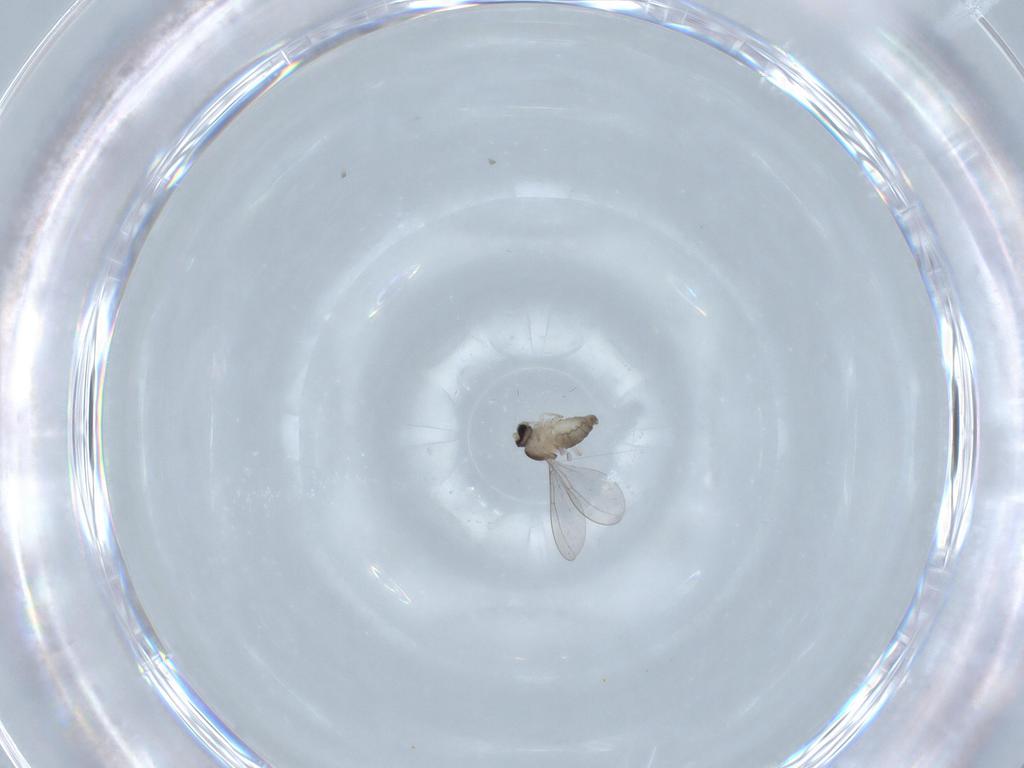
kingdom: Animalia
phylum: Arthropoda
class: Insecta
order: Diptera
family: Cecidomyiidae
